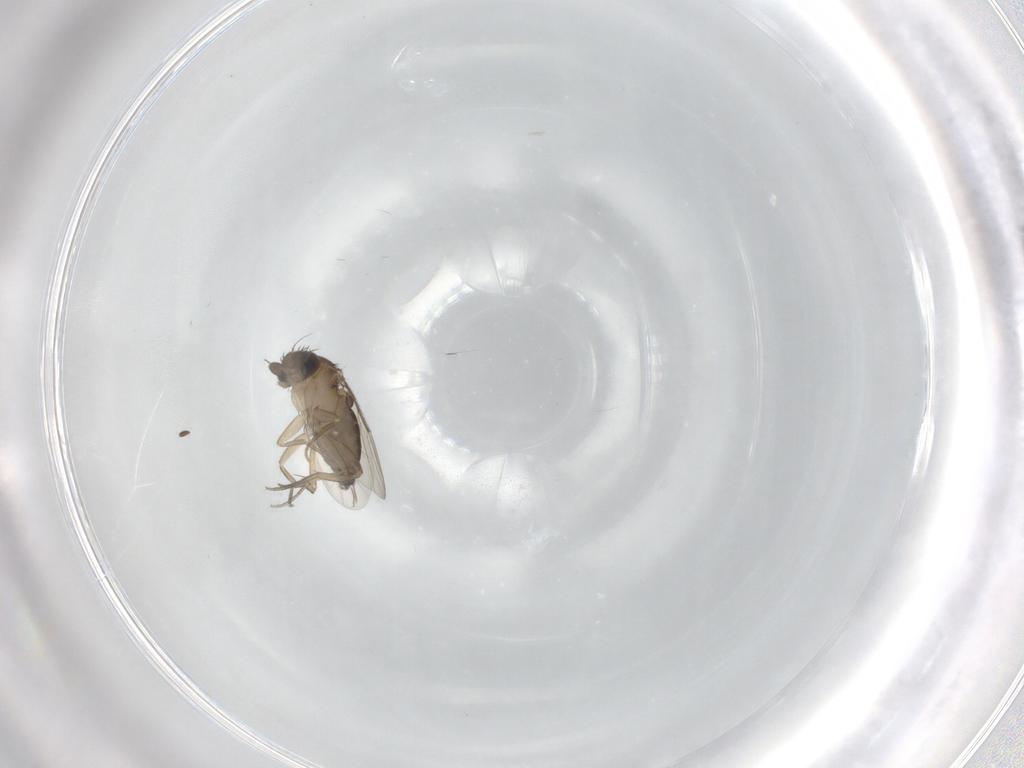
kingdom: Animalia
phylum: Arthropoda
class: Insecta
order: Diptera
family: Phoridae
